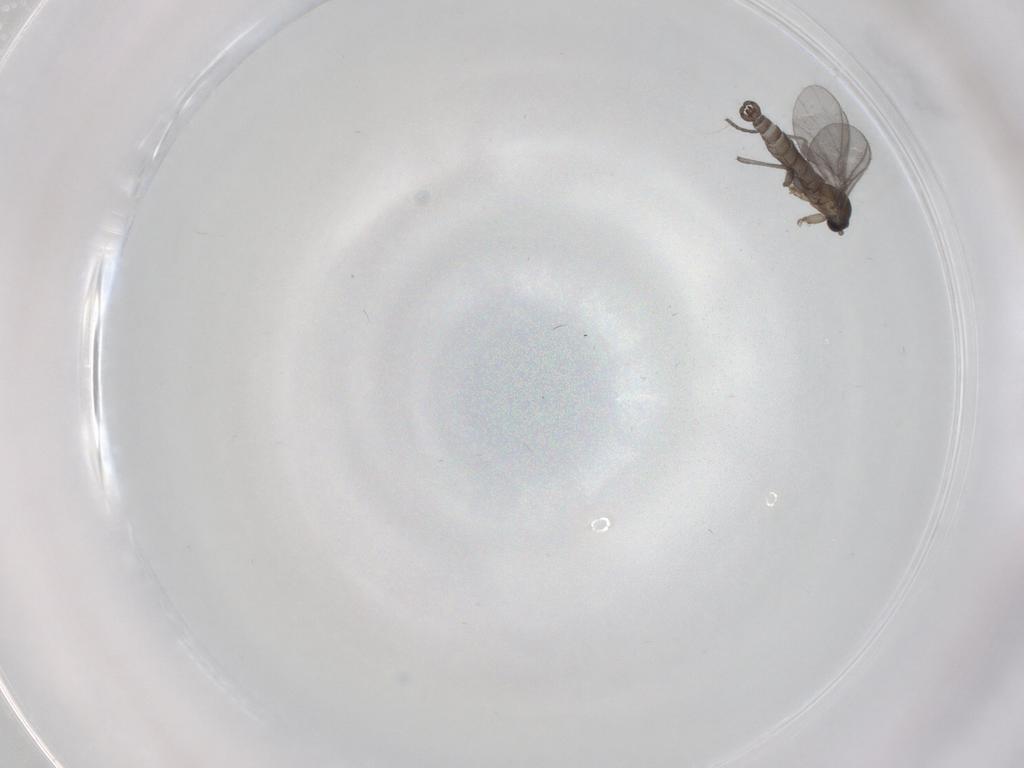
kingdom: Animalia
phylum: Arthropoda
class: Insecta
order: Diptera
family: Sciaridae
